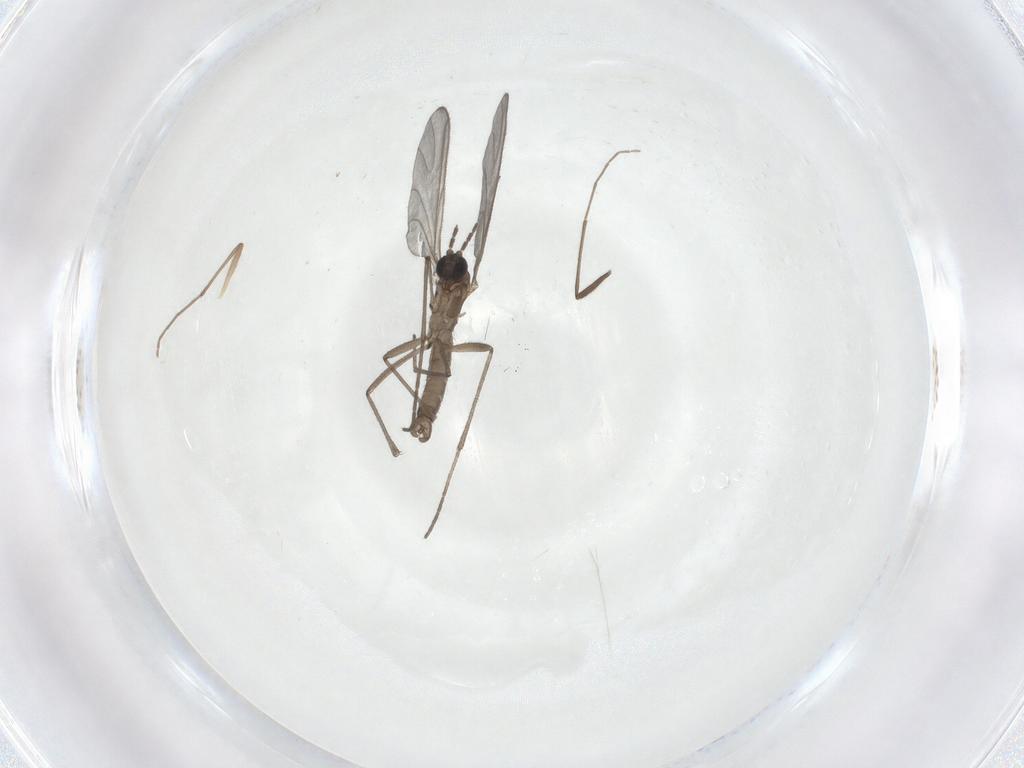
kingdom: Animalia
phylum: Arthropoda
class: Insecta
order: Diptera
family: Sciaridae
